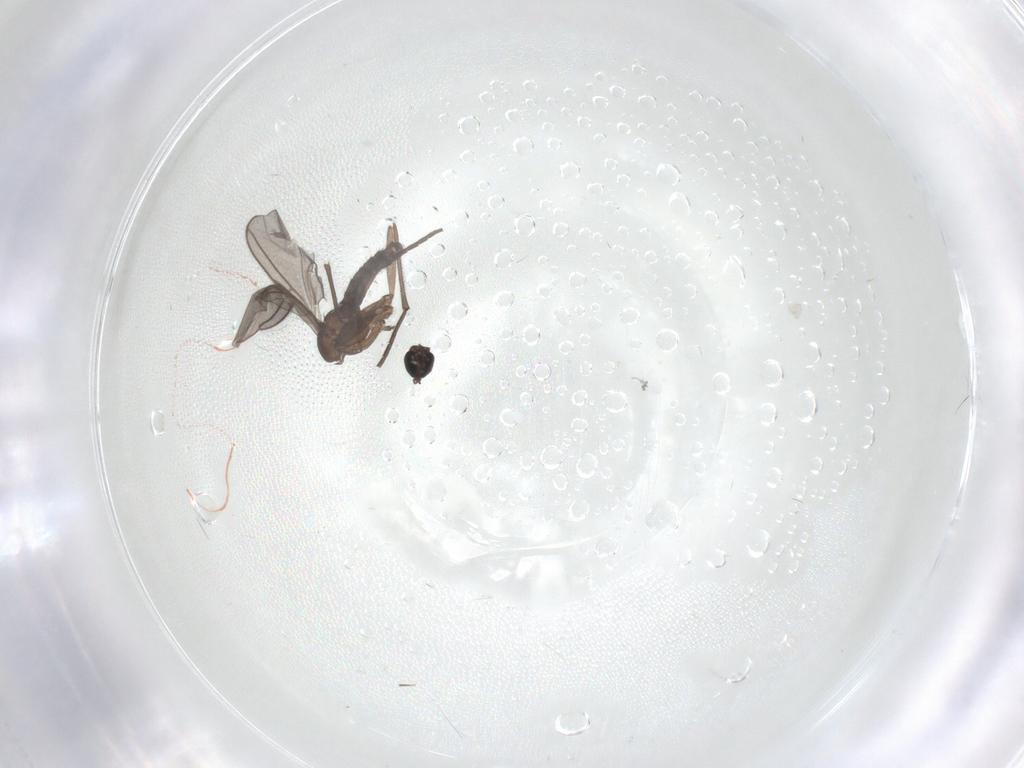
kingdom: Animalia
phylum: Arthropoda
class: Insecta
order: Diptera
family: Sciaridae
